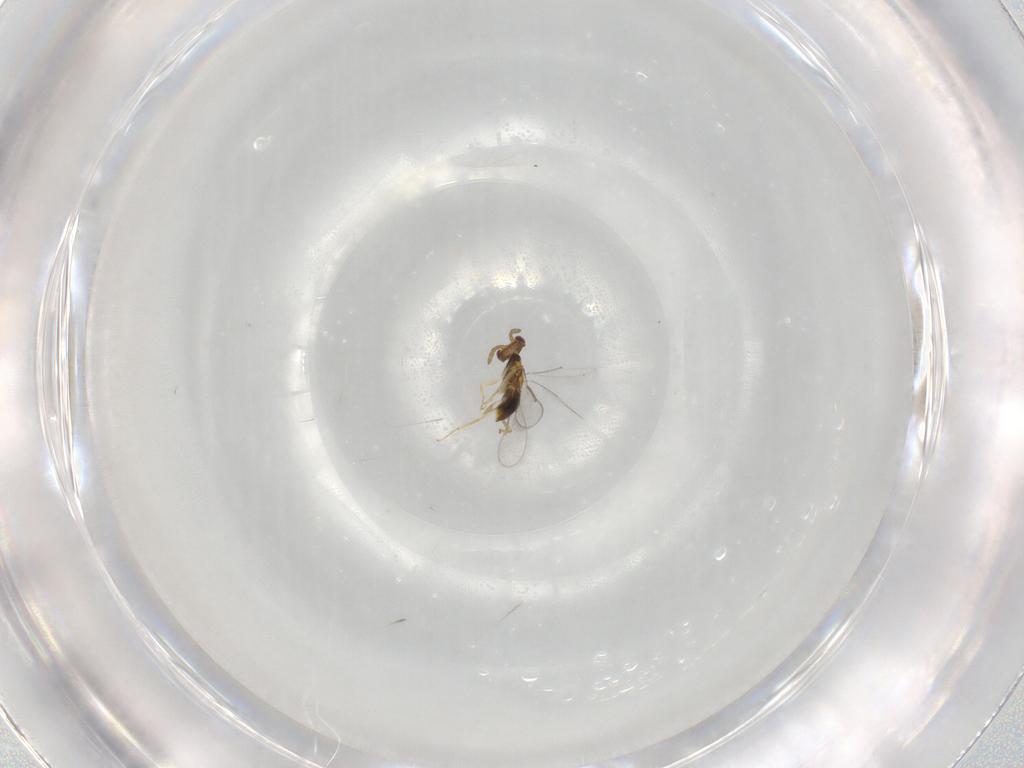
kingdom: Animalia
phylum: Arthropoda
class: Insecta
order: Hymenoptera
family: Aphelinidae
